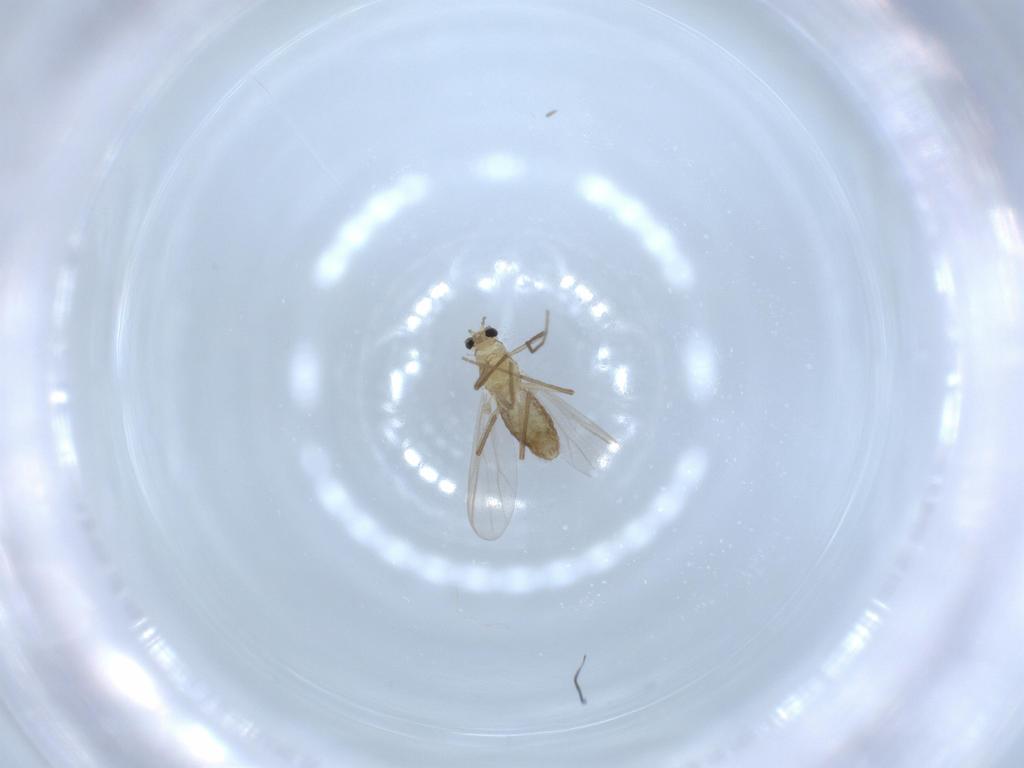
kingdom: Animalia
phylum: Arthropoda
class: Insecta
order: Diptera
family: Chironomidae
